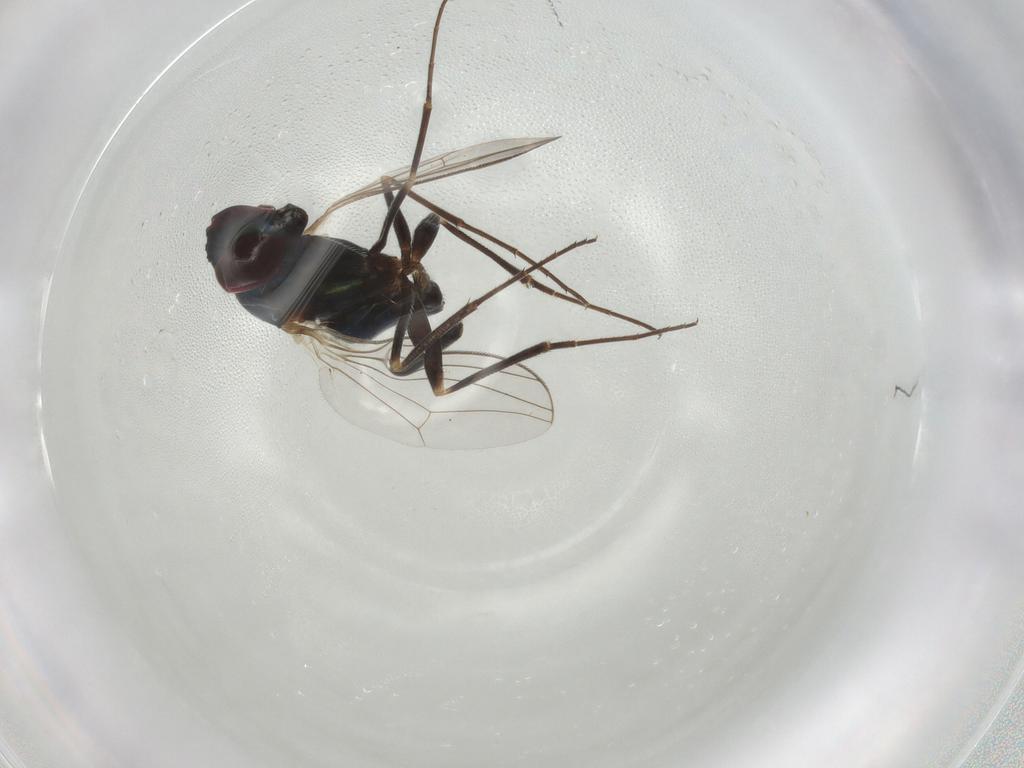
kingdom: Animalia
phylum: Arthropoda
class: Insecta
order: Diptera
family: Dolichopodidae
